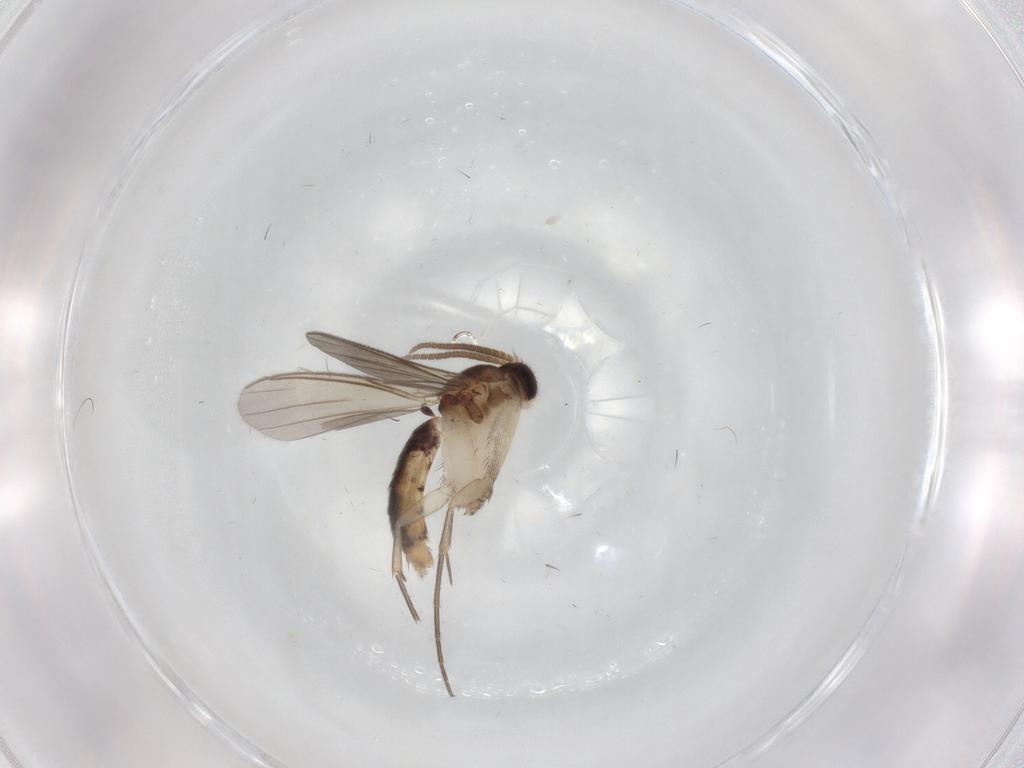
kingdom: Animalia
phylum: Arthropoda
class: Insecta
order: Diptera
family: Mycetophilidae
